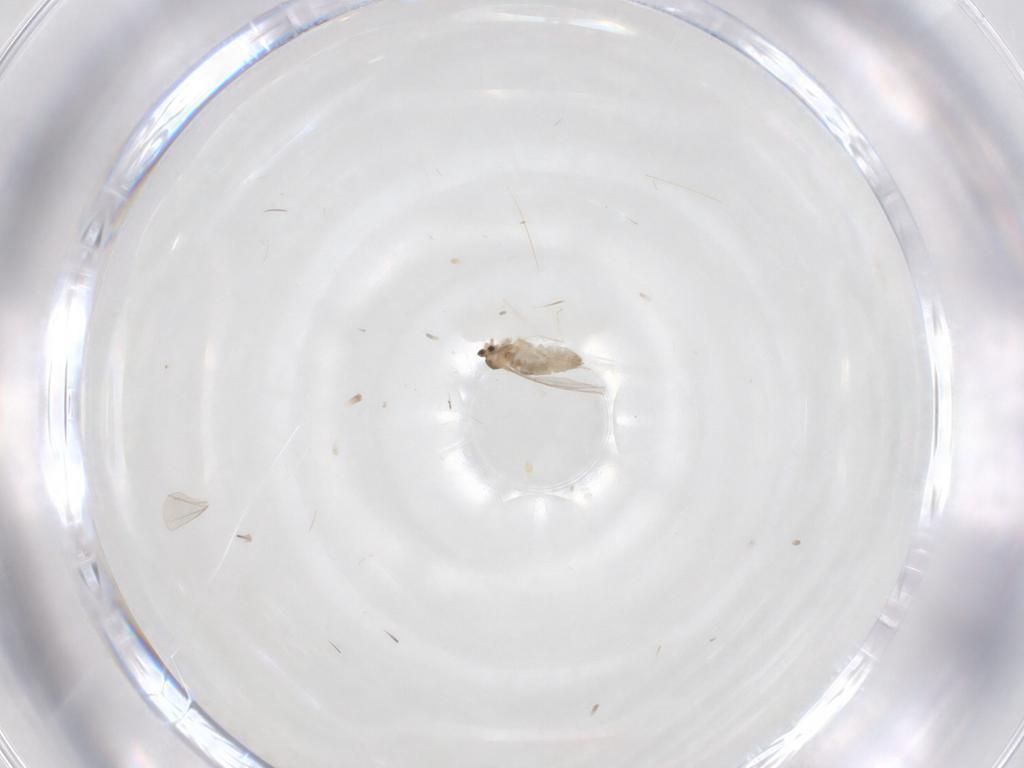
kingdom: Animalia
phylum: Arthropoda
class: Insecta
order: Diptera
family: Cecidomyiidae
